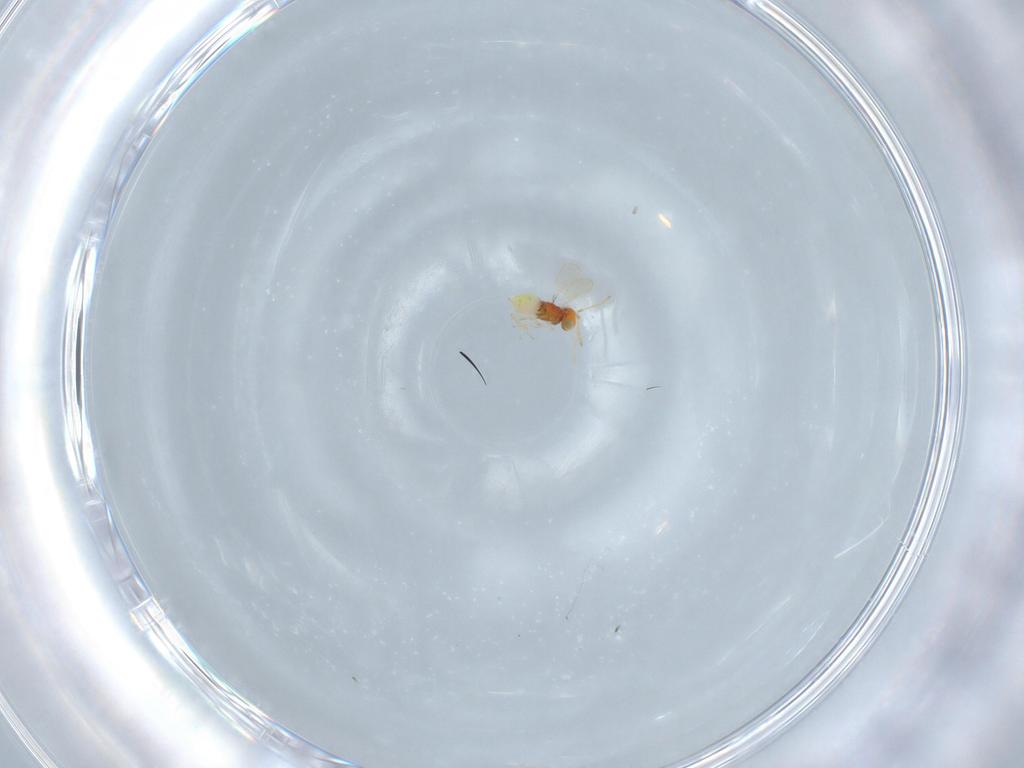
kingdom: Animalia
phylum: Arthropoda
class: Insecta
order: Hymenoptera
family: Aphelinidae
